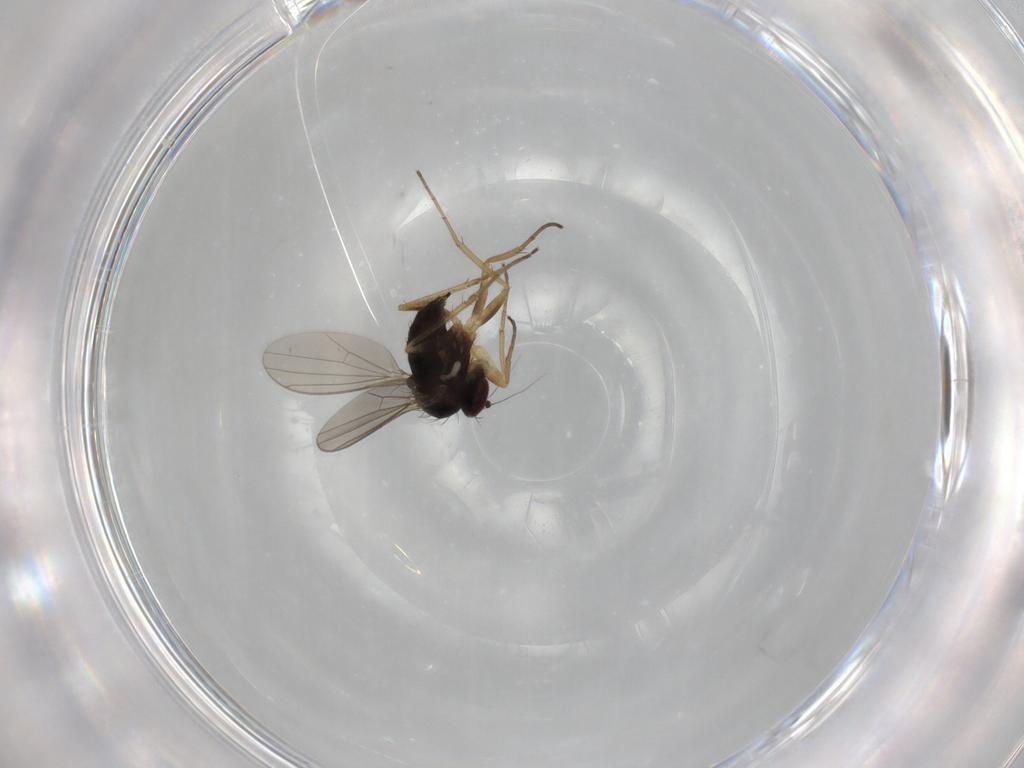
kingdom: Animalia
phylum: Arthropoda
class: Insecta
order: Diptera
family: Dolichopodidae
